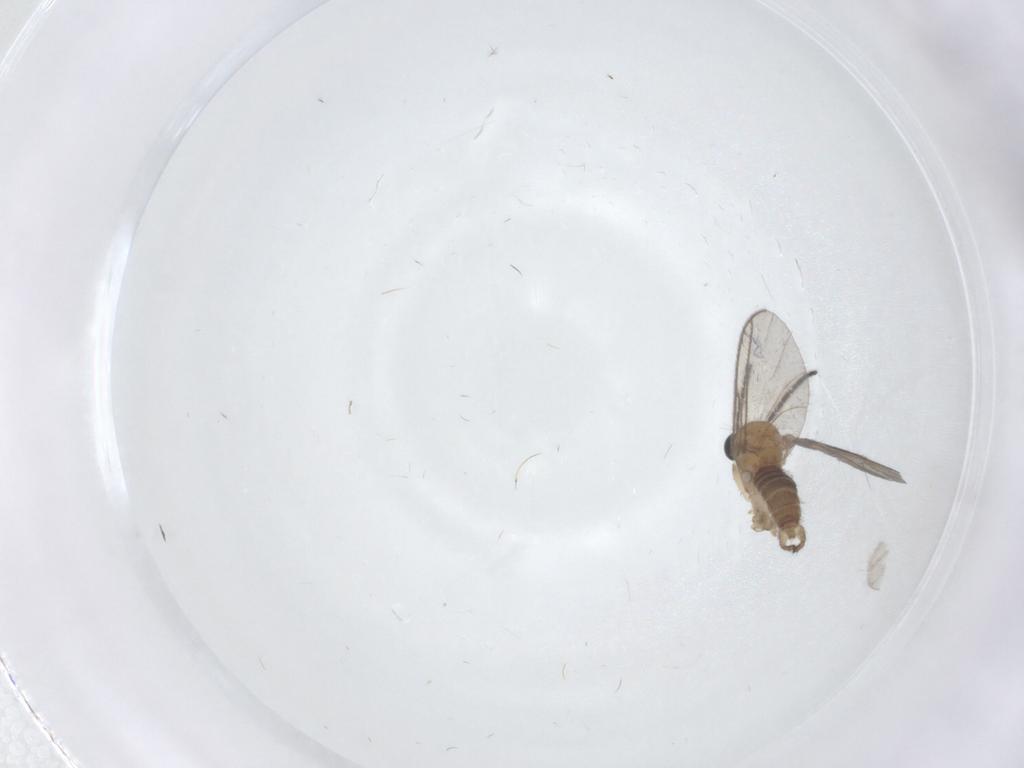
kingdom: Animalia
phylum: Arthropoda
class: Insecta
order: Diptera
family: Sciaridae
